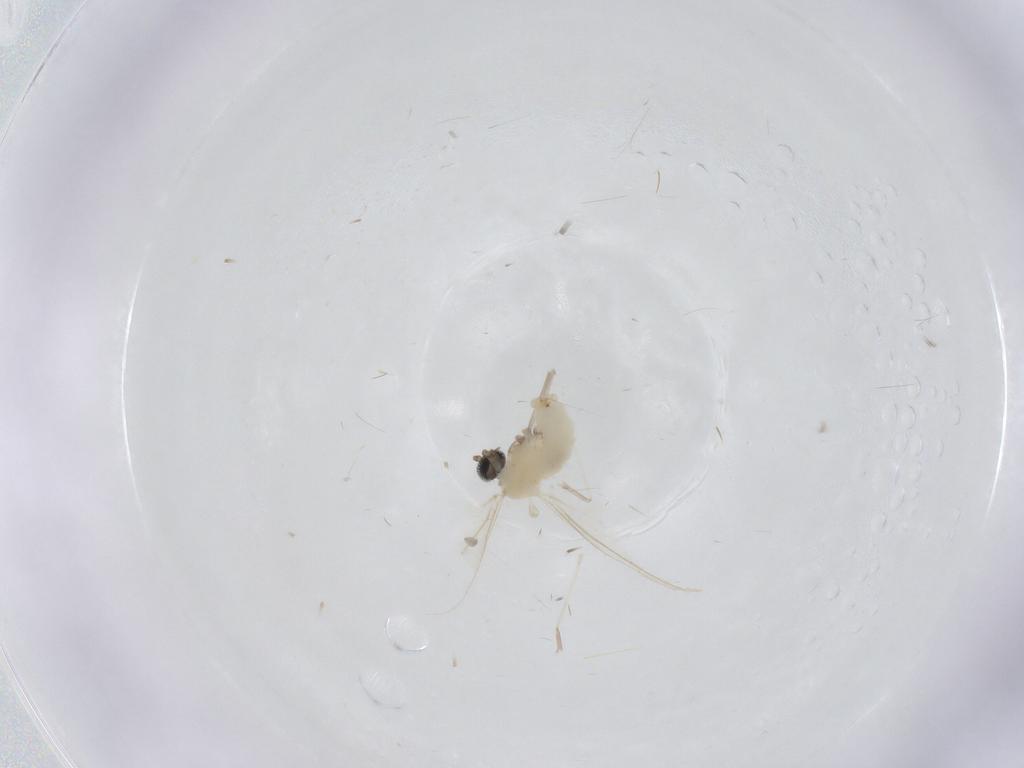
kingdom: Animalia
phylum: Arthropoda
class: Insecta
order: Diptera
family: Cecidomyiidae
